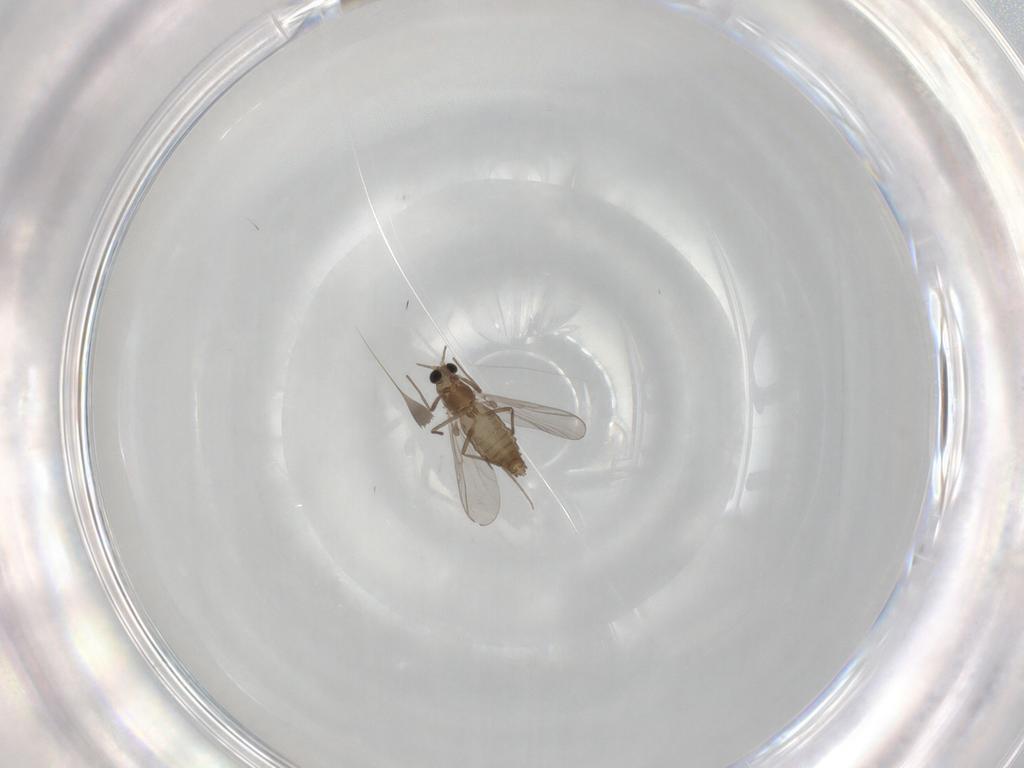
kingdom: Animalia
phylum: Arthropoda
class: Insecta
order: Diptera
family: Chironomidae
